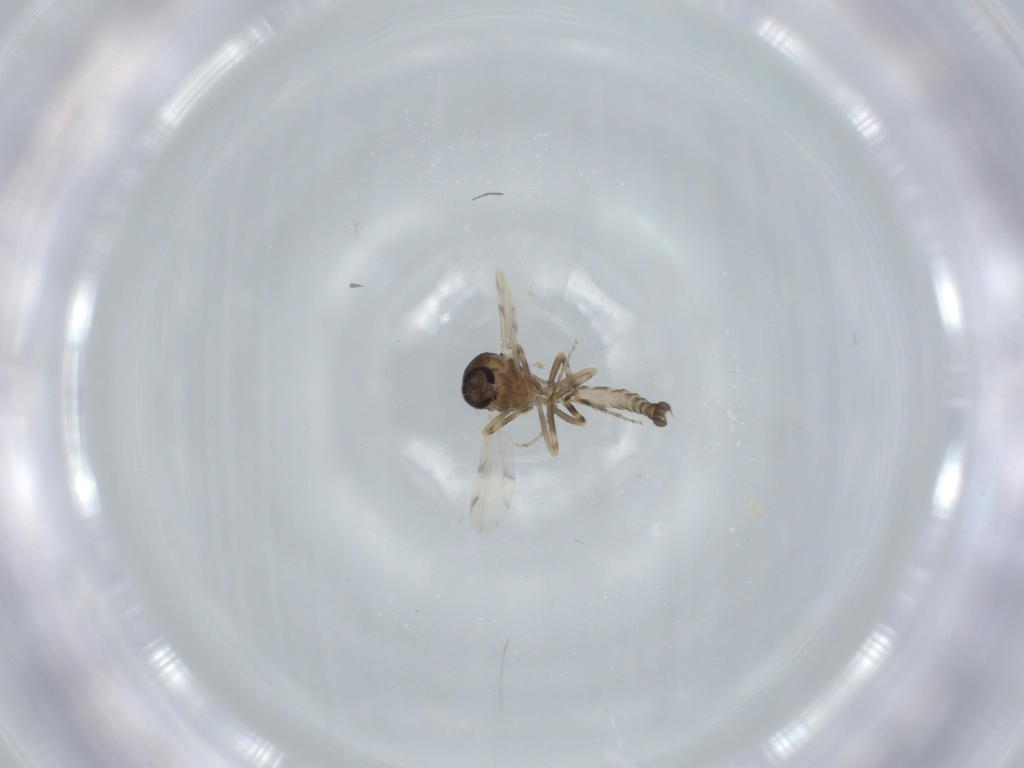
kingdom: Animalia
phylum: Arthropoda
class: Insecta
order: Diptera
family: Ceratopogonidae
